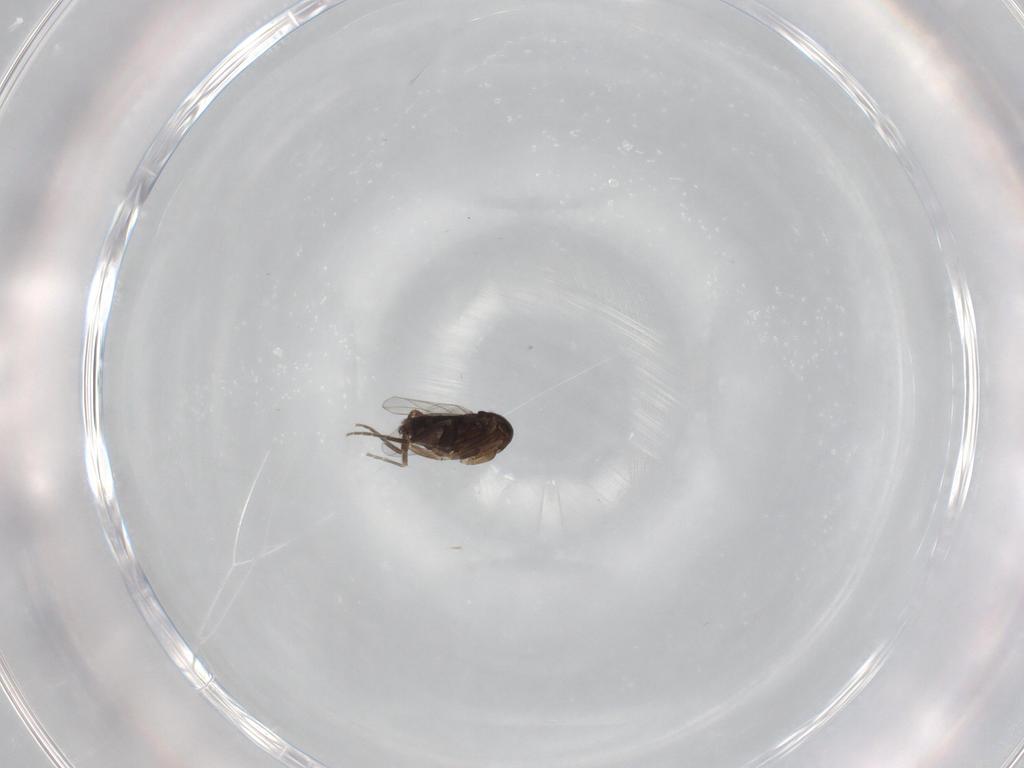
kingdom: Animalia
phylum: Arthropoda
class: Insecta
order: Diptera
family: Phoridae
